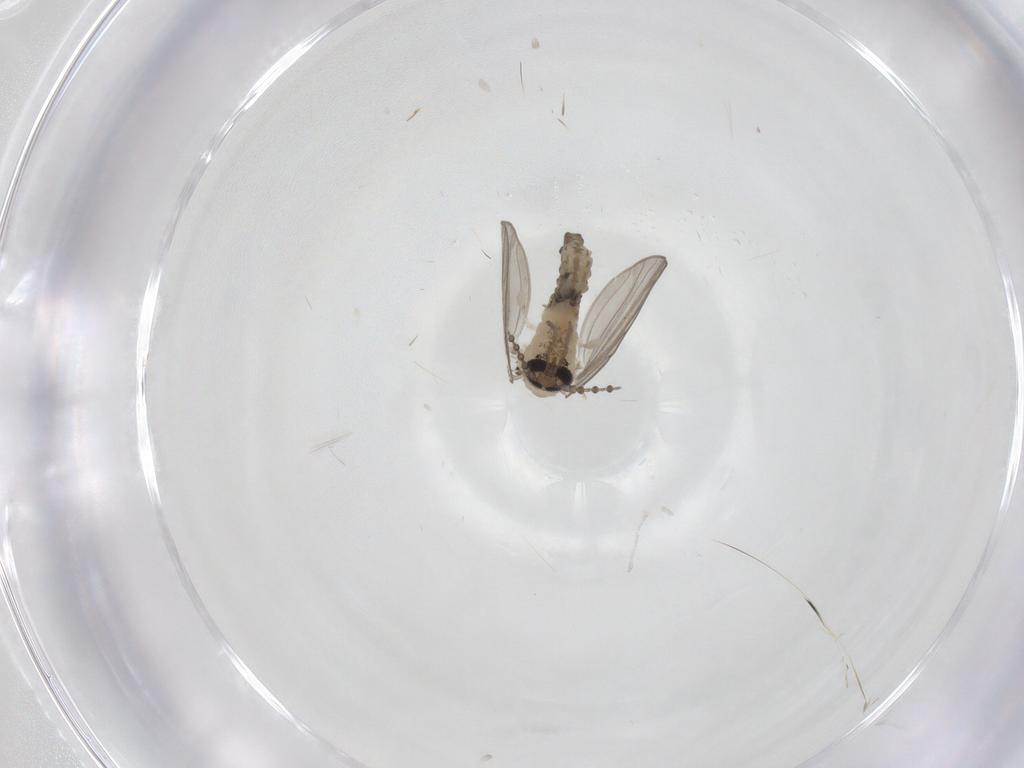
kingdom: Animalia
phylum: Arthropoda
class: Insecta
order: Diptera
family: Psychodidae
